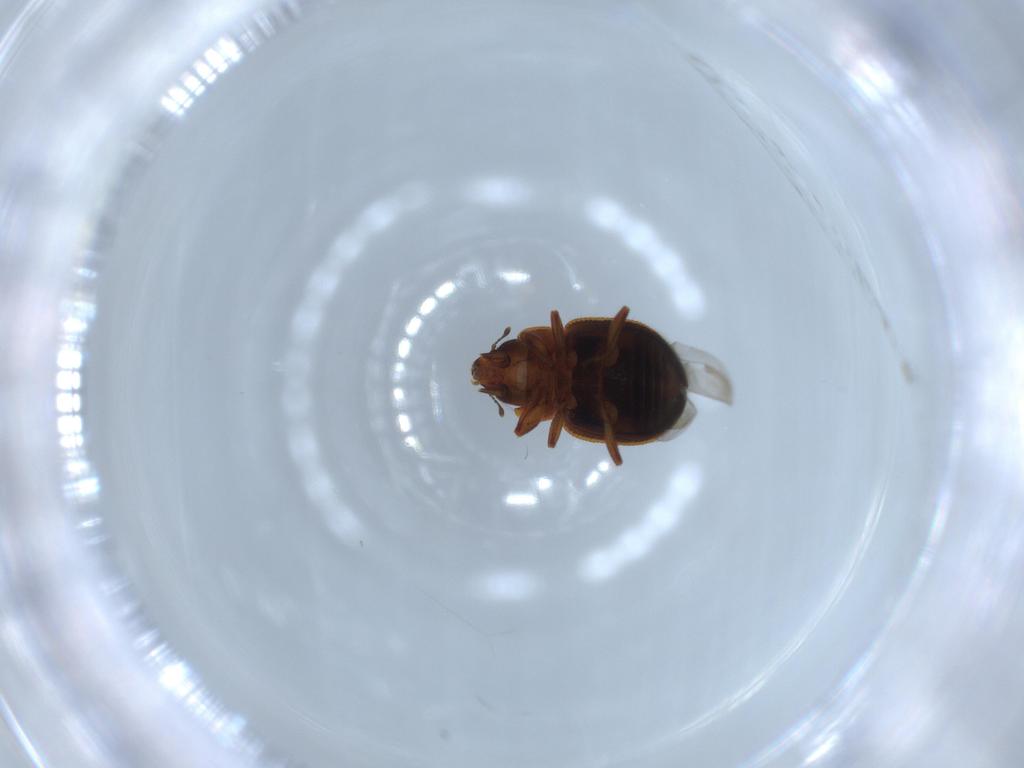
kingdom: Animalia
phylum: Arthropoda
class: Insecta
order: Coleoptera
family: Coccinellidae
